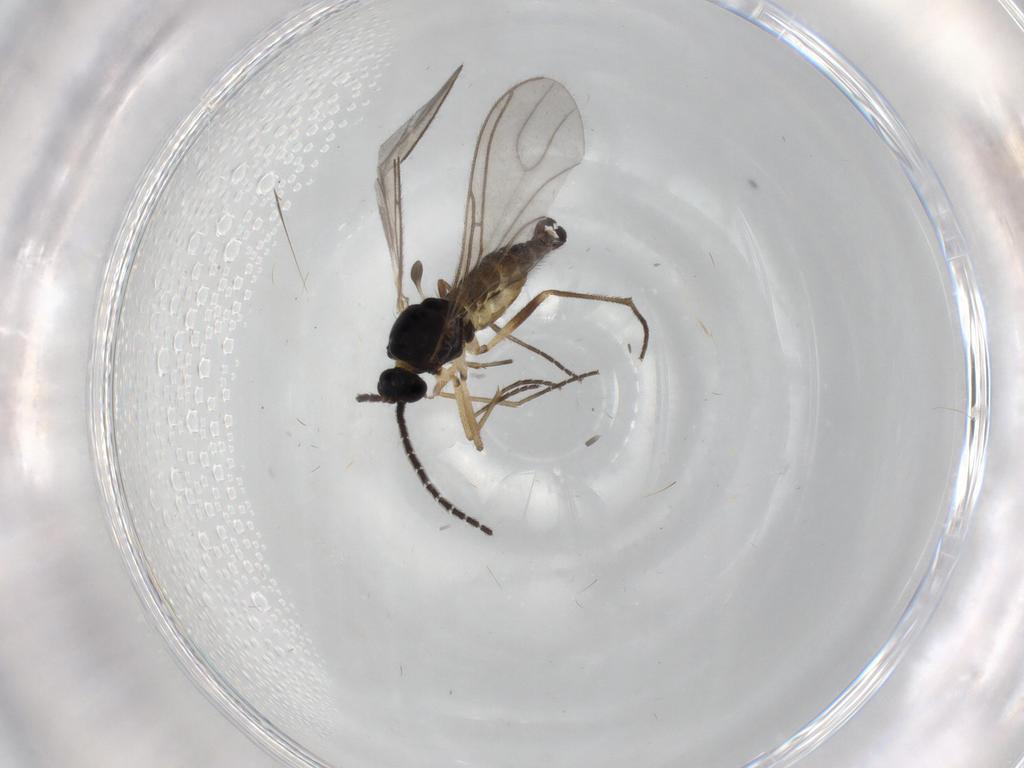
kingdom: Animalia
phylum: Arthropoda
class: Insecta
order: Diptera
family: Sciaridae
